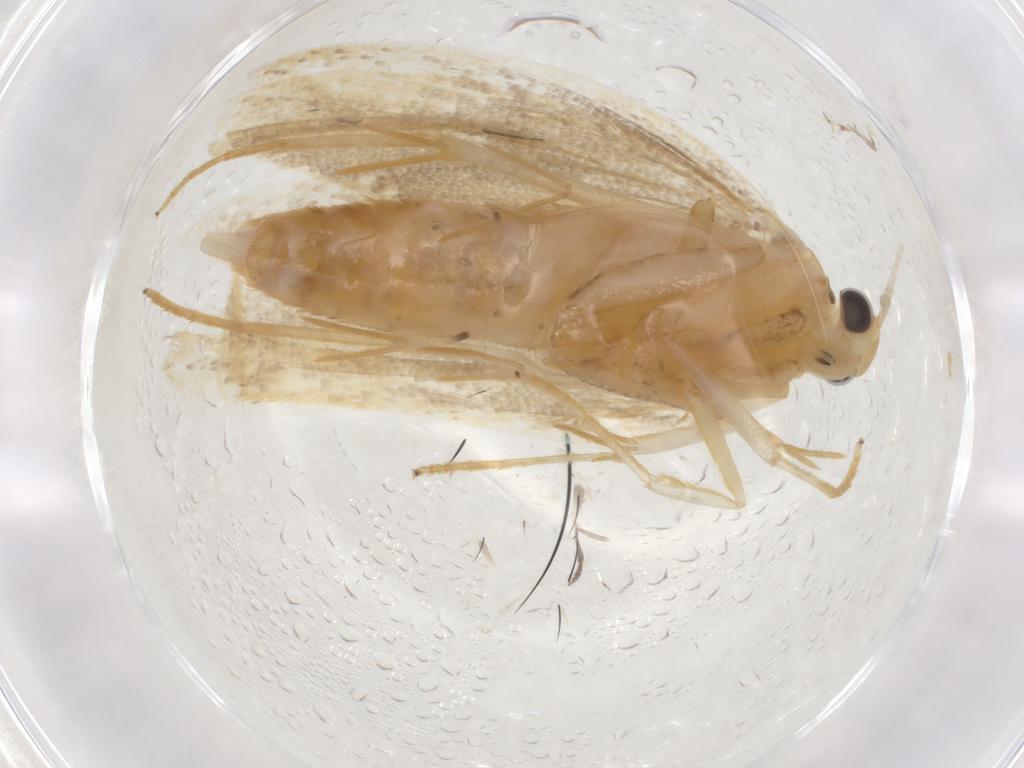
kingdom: Animalia
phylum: Arthropoda
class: Insecta
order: Lepidoptera
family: Lecithoceridae
